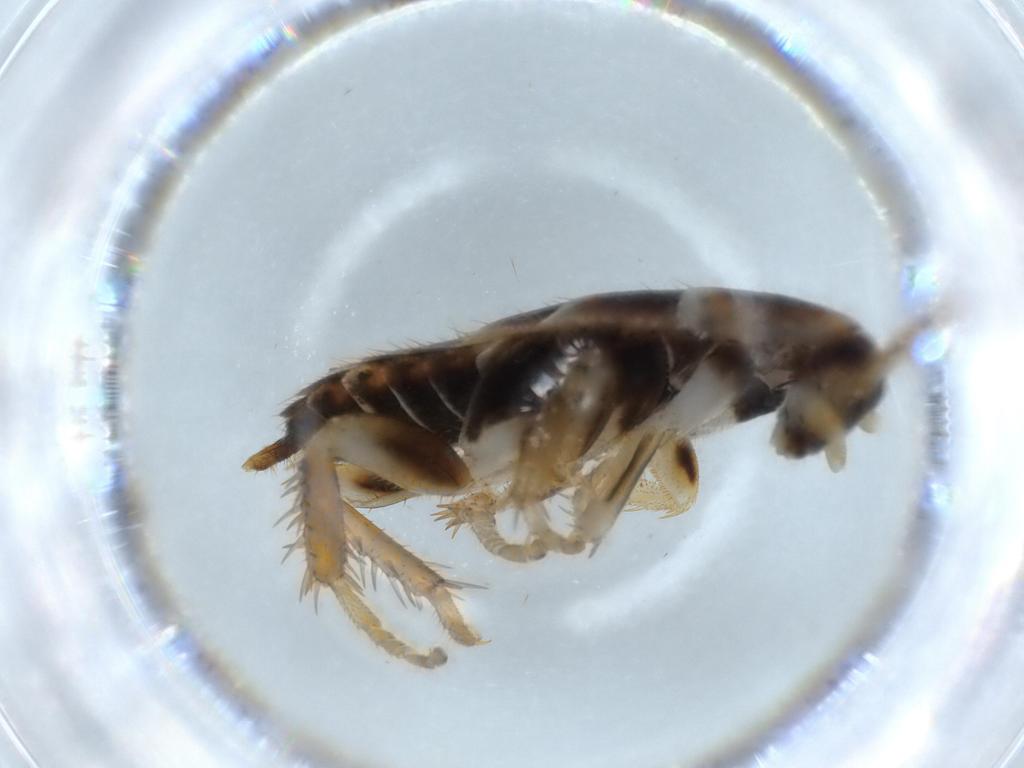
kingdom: Animalia
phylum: Arthropoda
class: Insecta
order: Blattodea
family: Ectobiidae
